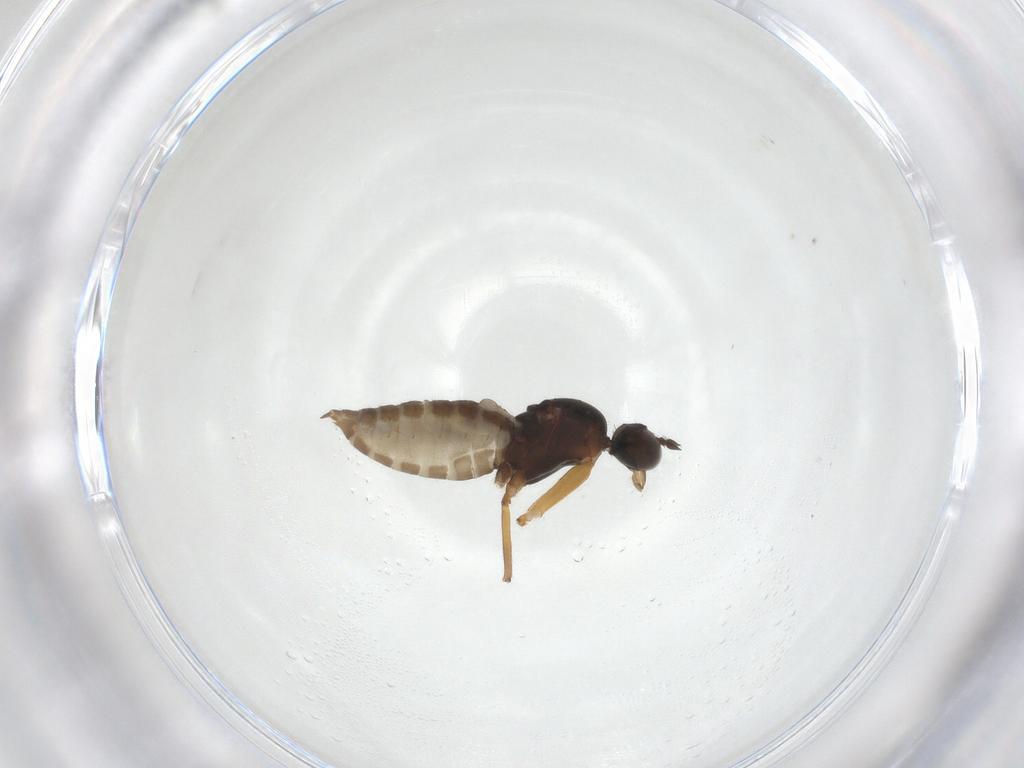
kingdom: Animalia
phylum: Arthropoda
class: Insecta
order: Diptera
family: Empididae
